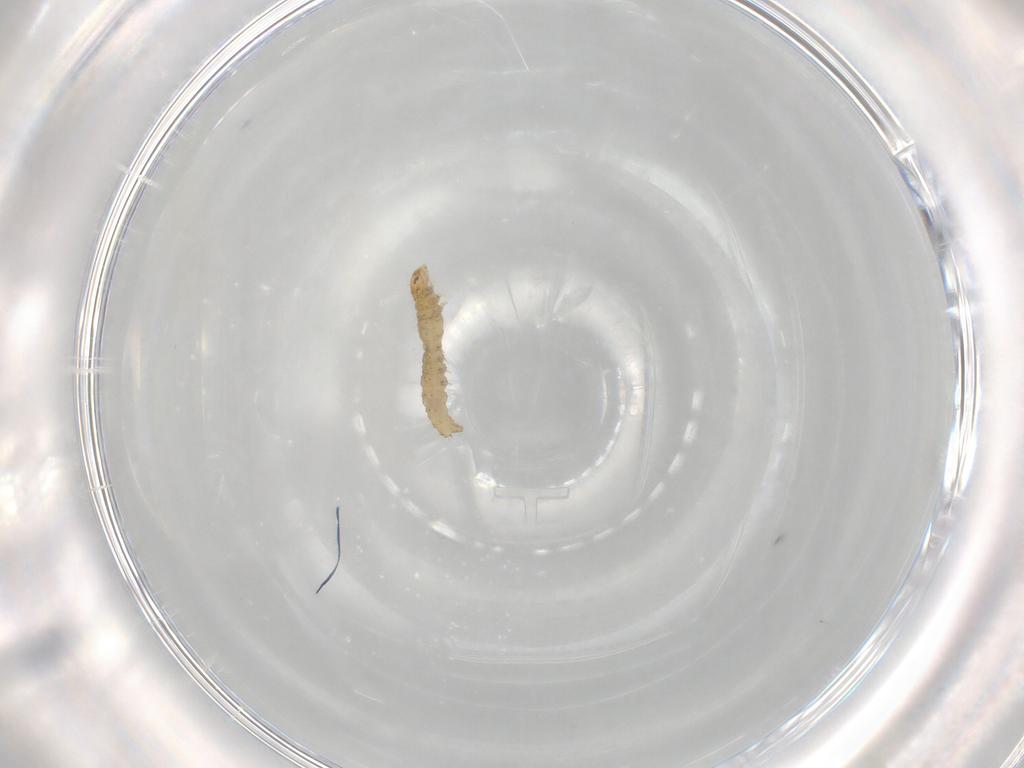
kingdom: Animalia
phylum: Arthropoda
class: Insecta
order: Lepidoptera
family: Gelechiidae
